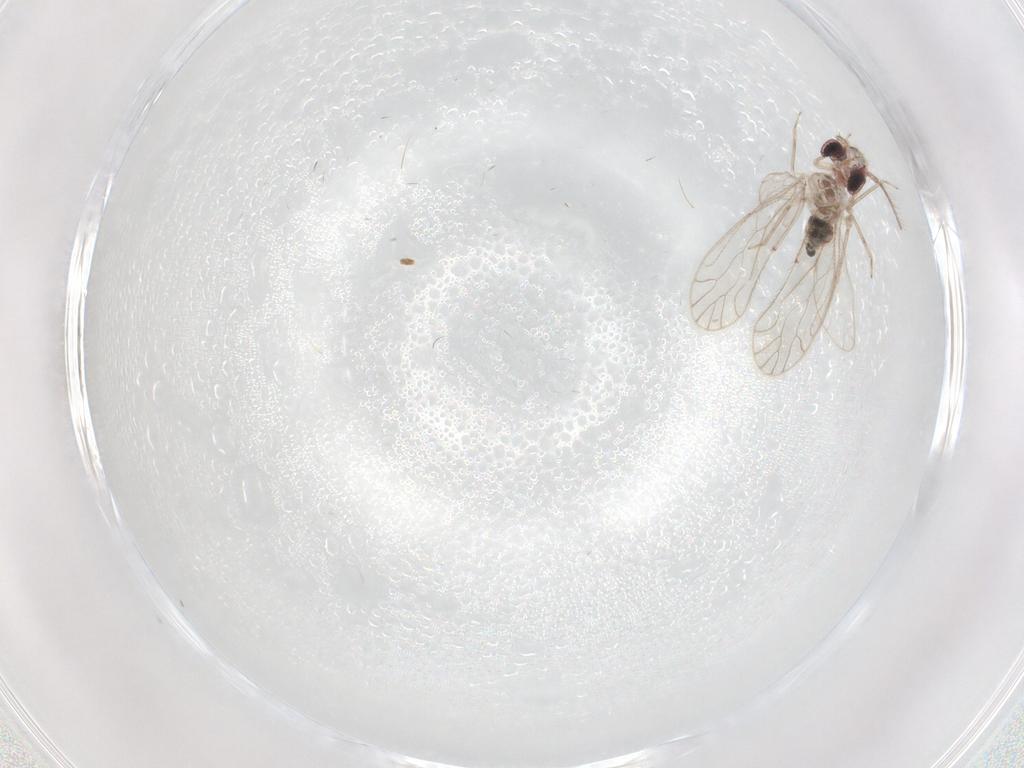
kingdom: Animalia
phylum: Arthropoda
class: Insecta
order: Psocodea
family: Caeciliusidae
